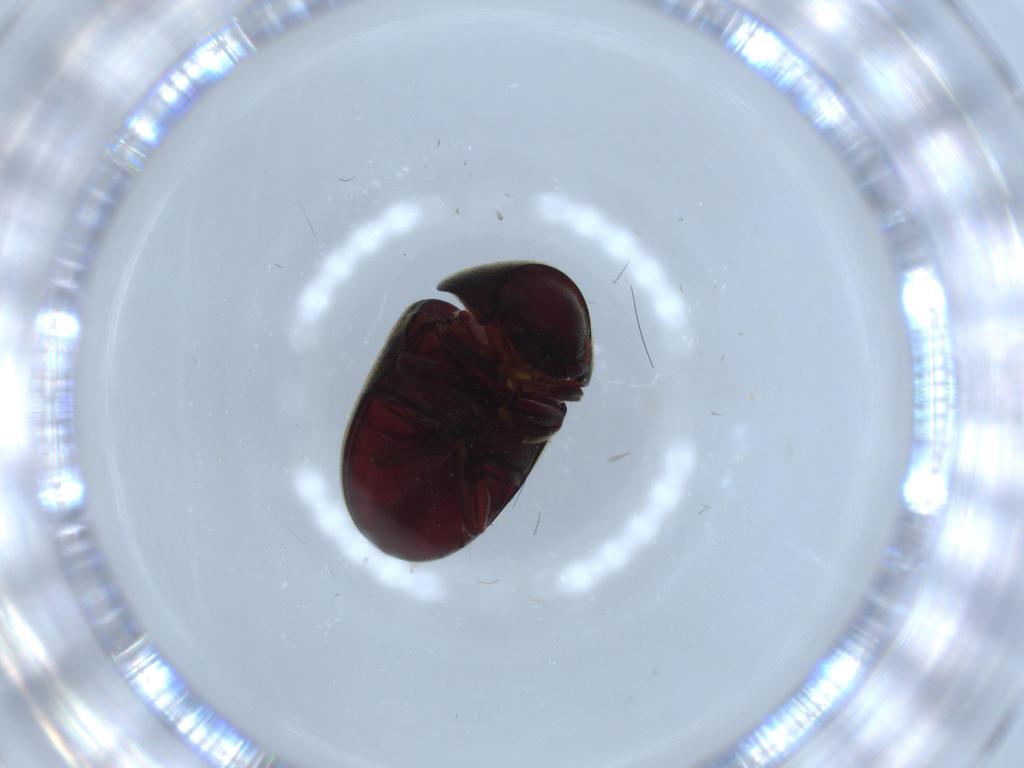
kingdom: Animalia
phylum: Arthropoda
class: Insecta
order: Coleoptera
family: Ptinidae
